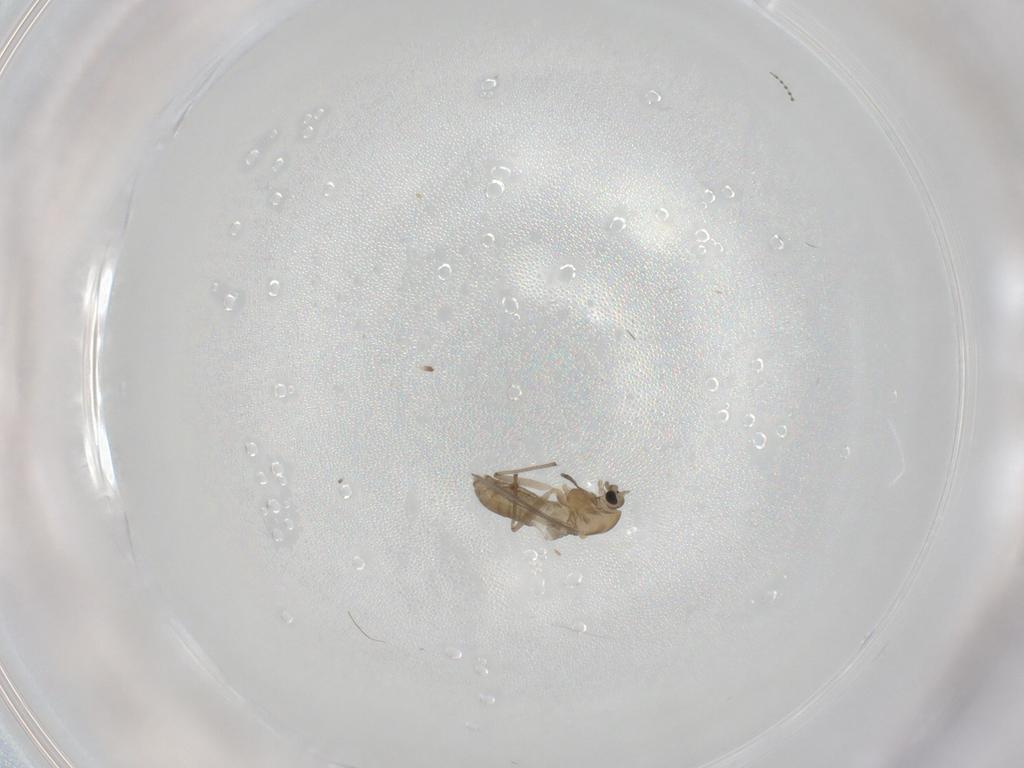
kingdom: Animalia
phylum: Arthropoda
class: Insecta
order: Diptera
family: Chironomidae
